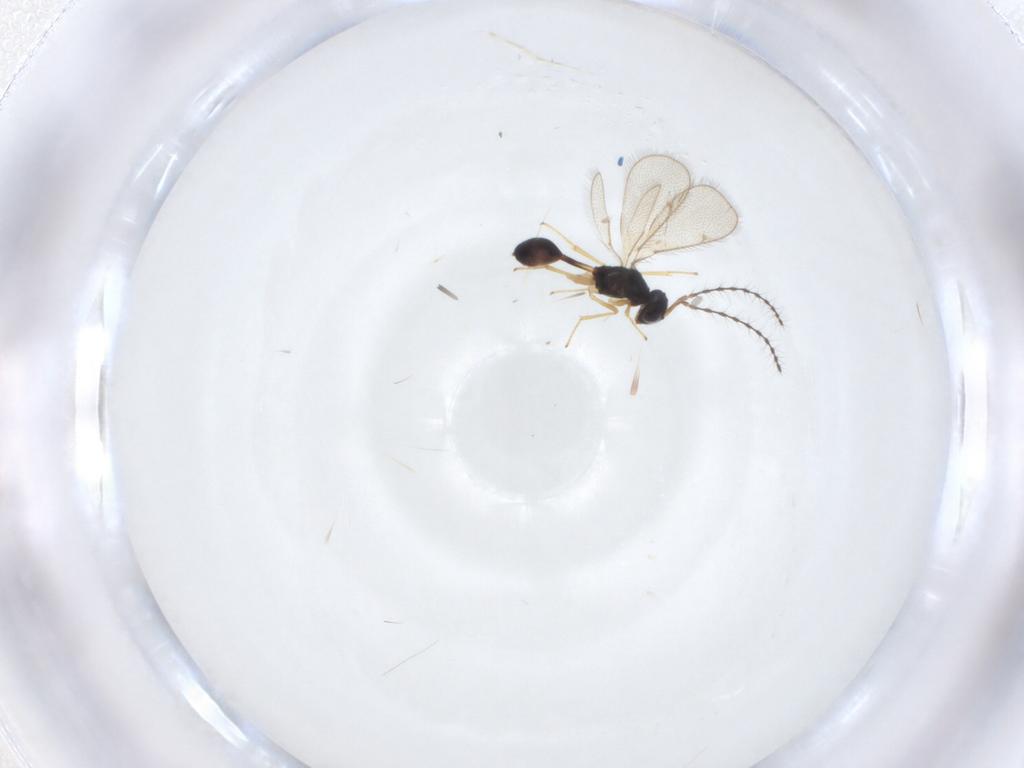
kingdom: Animalia
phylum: Arthropoda
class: Insecta
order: Hymenoptera
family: Diparidae
